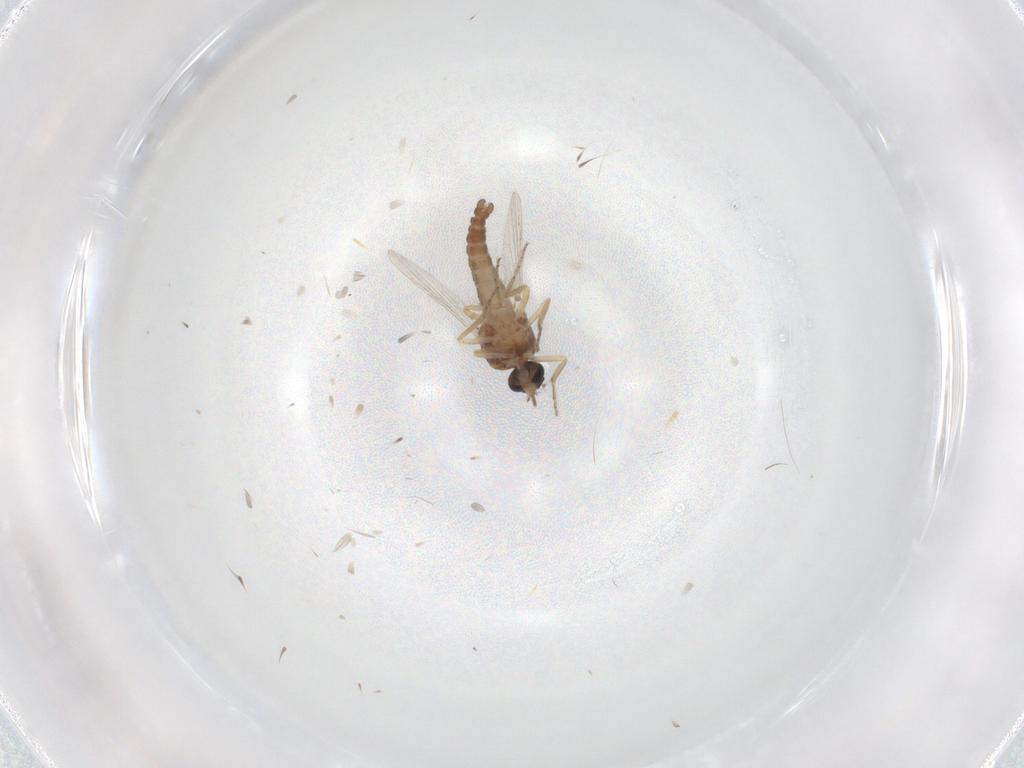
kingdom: Animalia
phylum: Arthropoda
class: Insecta
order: Diptera
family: Ceratopogonidae
